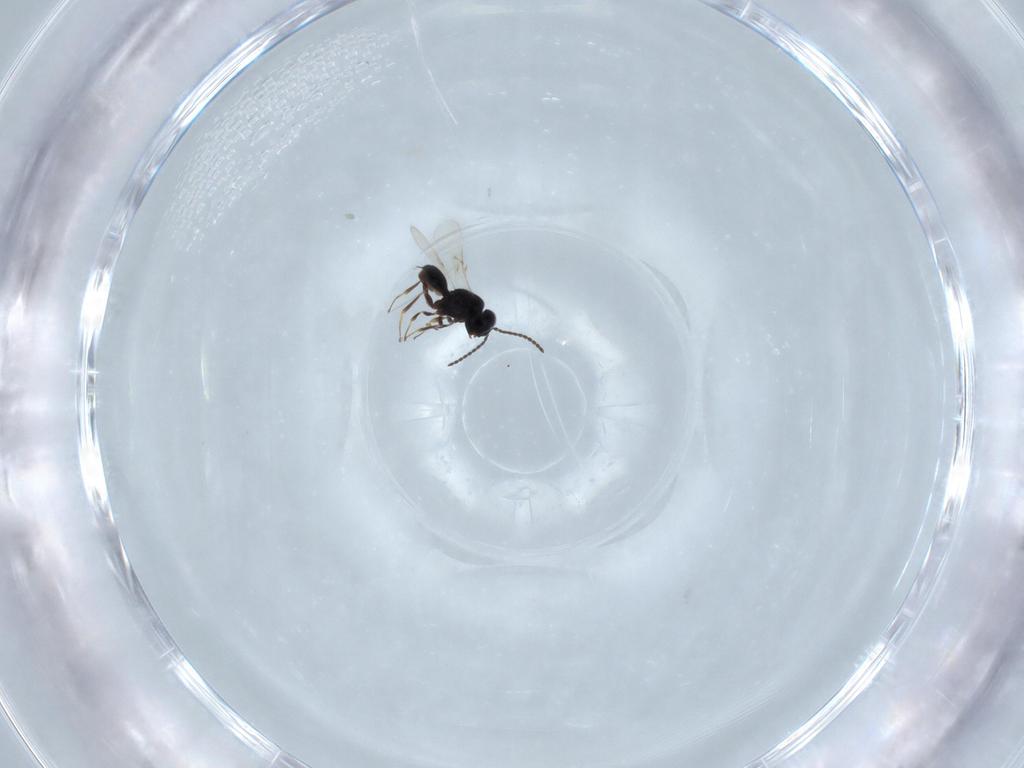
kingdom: Animalia
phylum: Arthropoda
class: Insecta
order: Hymenoptera
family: Scelionidae
